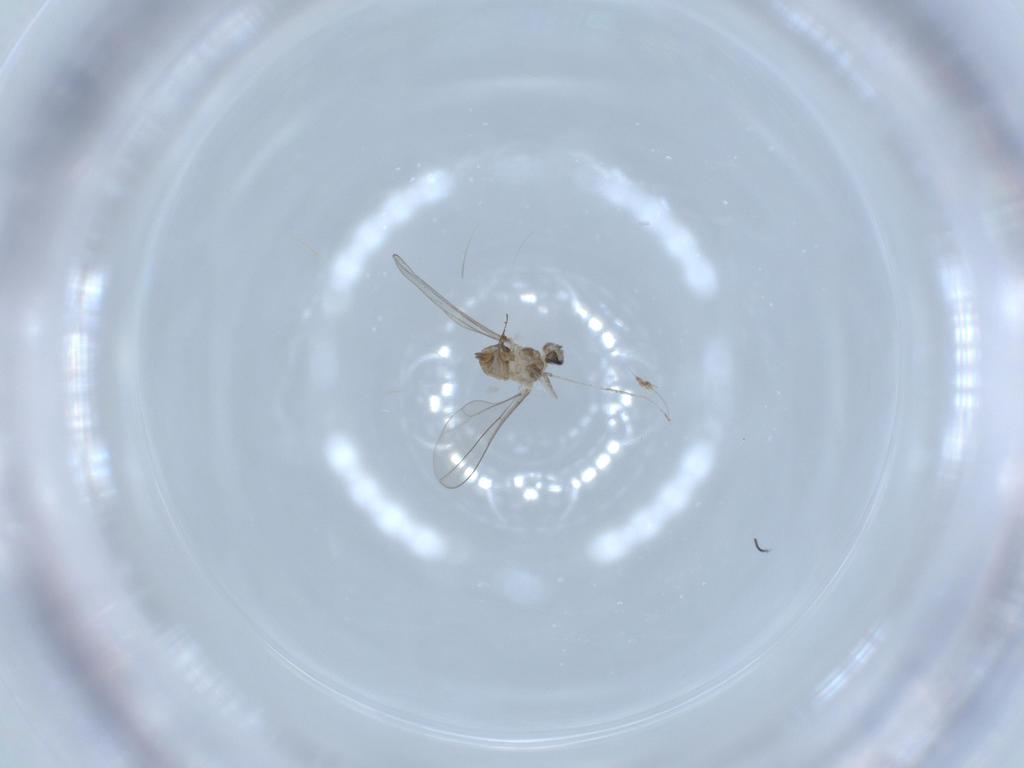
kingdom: Animalia
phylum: Arthropoda
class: Insecta
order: Diptera
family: Cecidomyiidae
